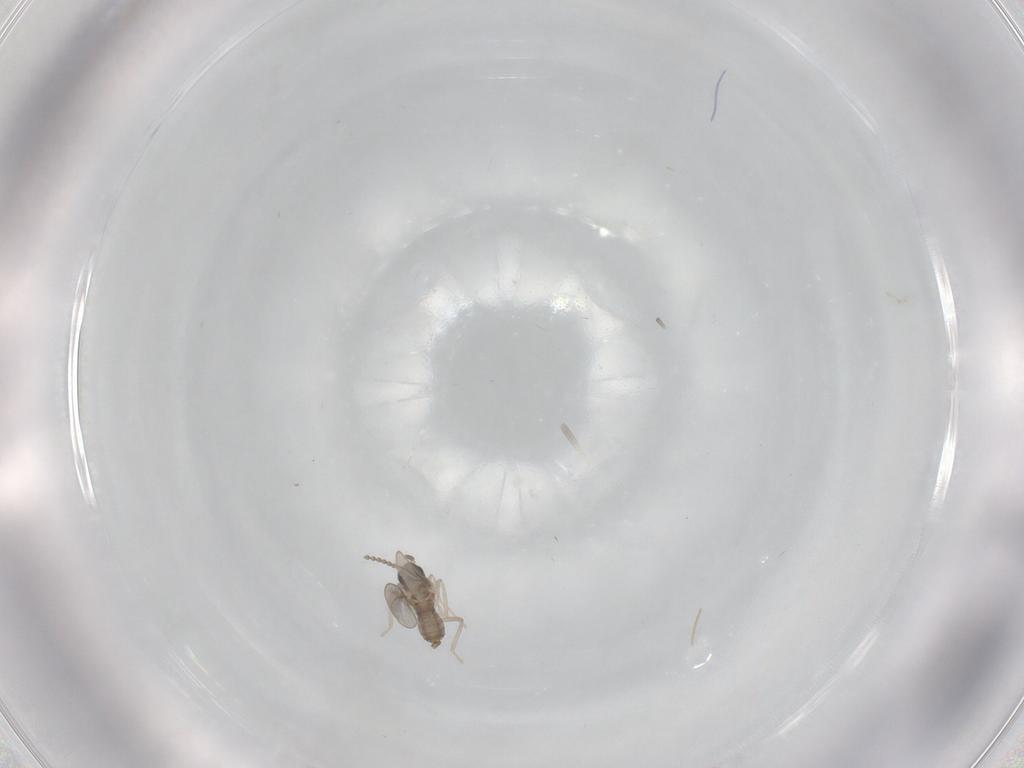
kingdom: Animalia
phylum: Arthropoda
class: Insecta
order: Diptera
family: Cecidomyiidae
